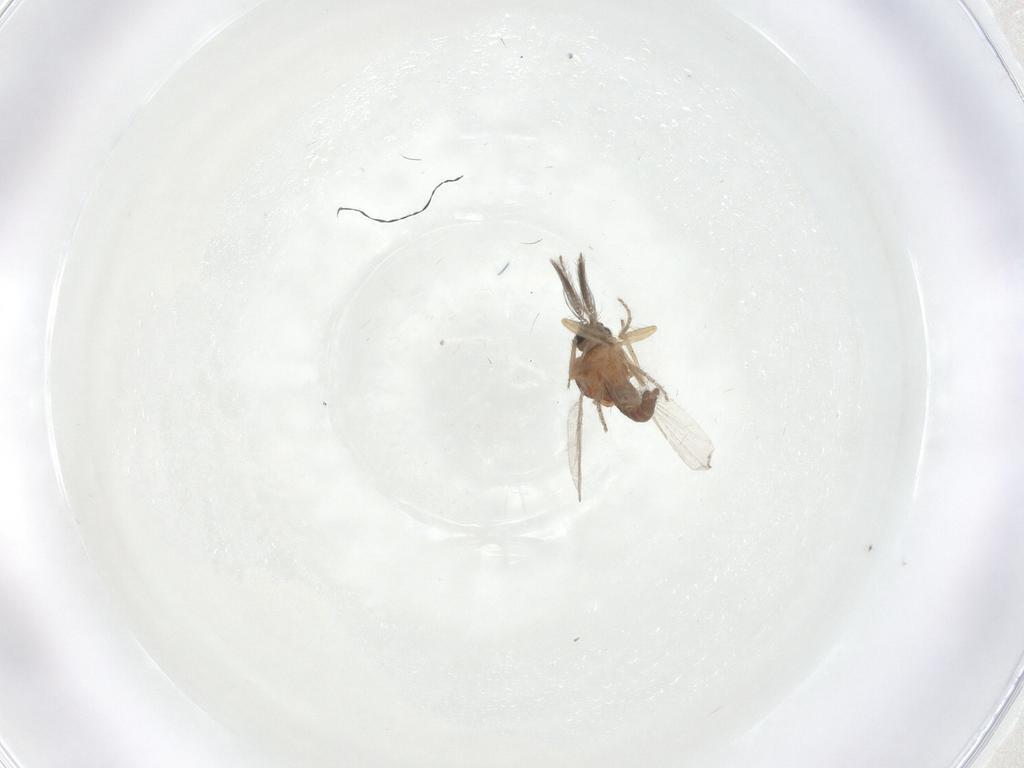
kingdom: Animalia
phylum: Arthropoda
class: Insecta
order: Diptera
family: Ceratopogonidae
